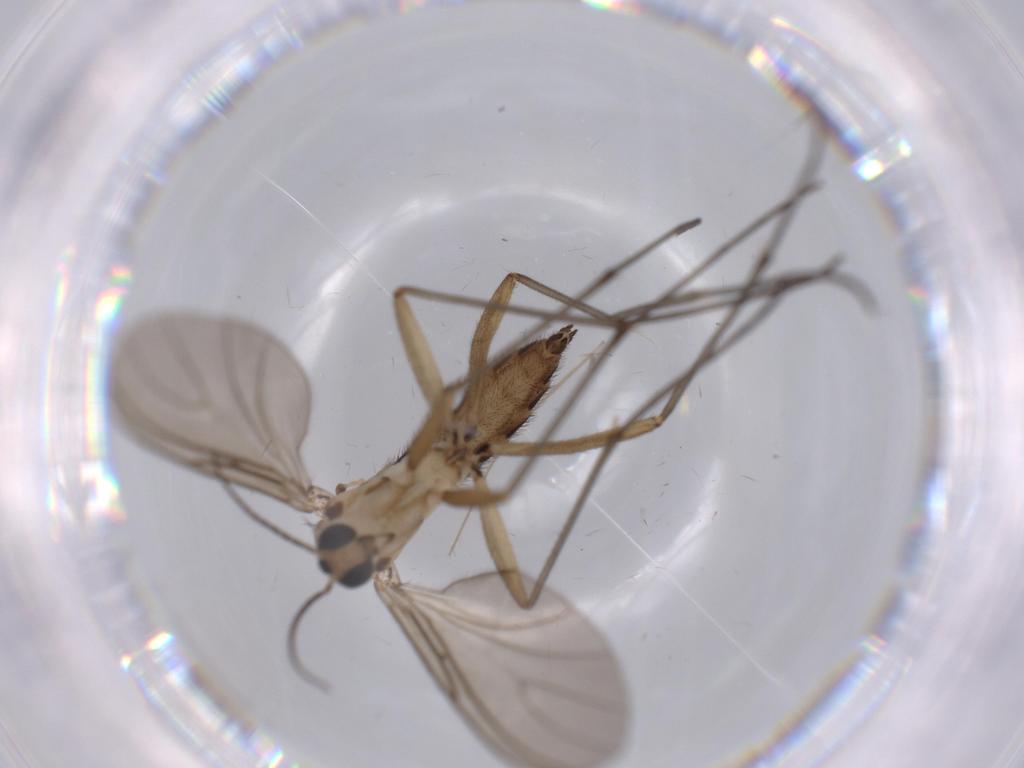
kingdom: Animalia
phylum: Arthropoda
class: Insecta
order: Diptera
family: Sciaridae
